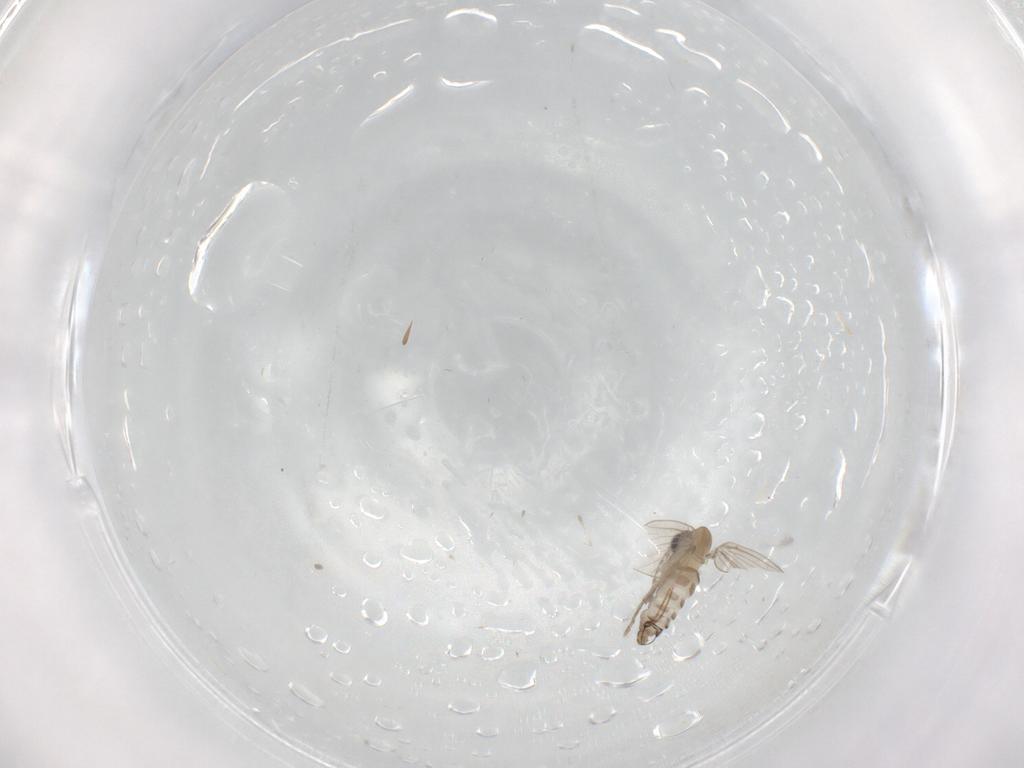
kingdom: Animalia
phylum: Arthropoda
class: Insecta
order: Diptera
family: Psychodidae
